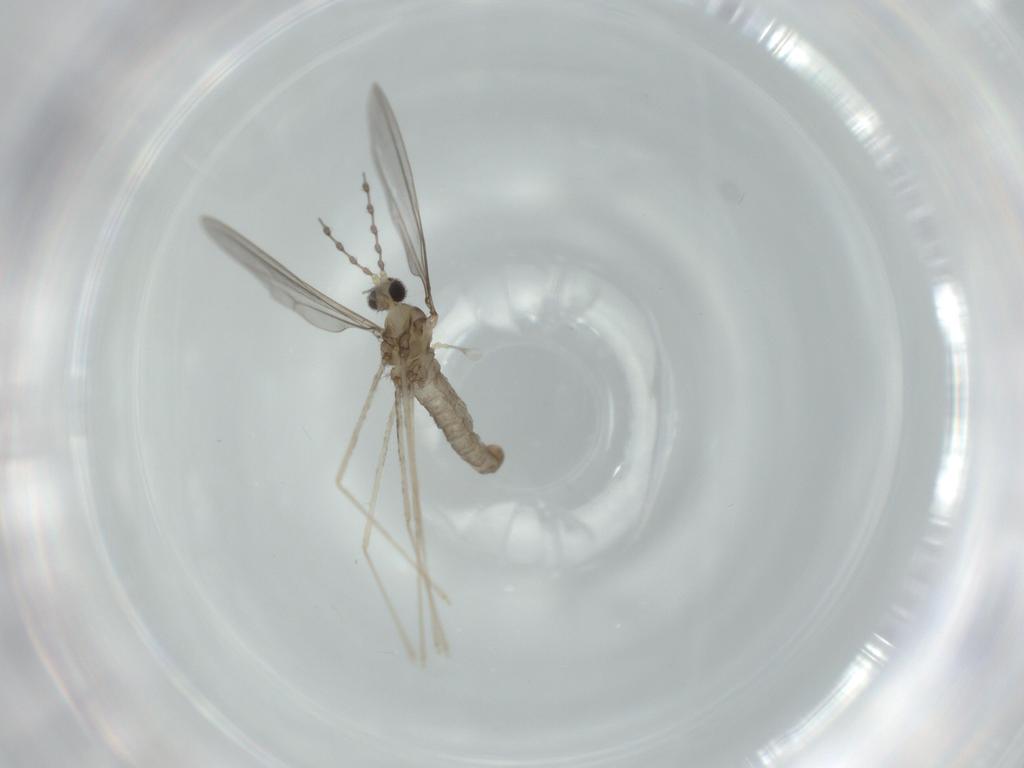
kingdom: Animalia
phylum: Arthropoda
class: Insecta
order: Diptera
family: Cecidomyiidae
